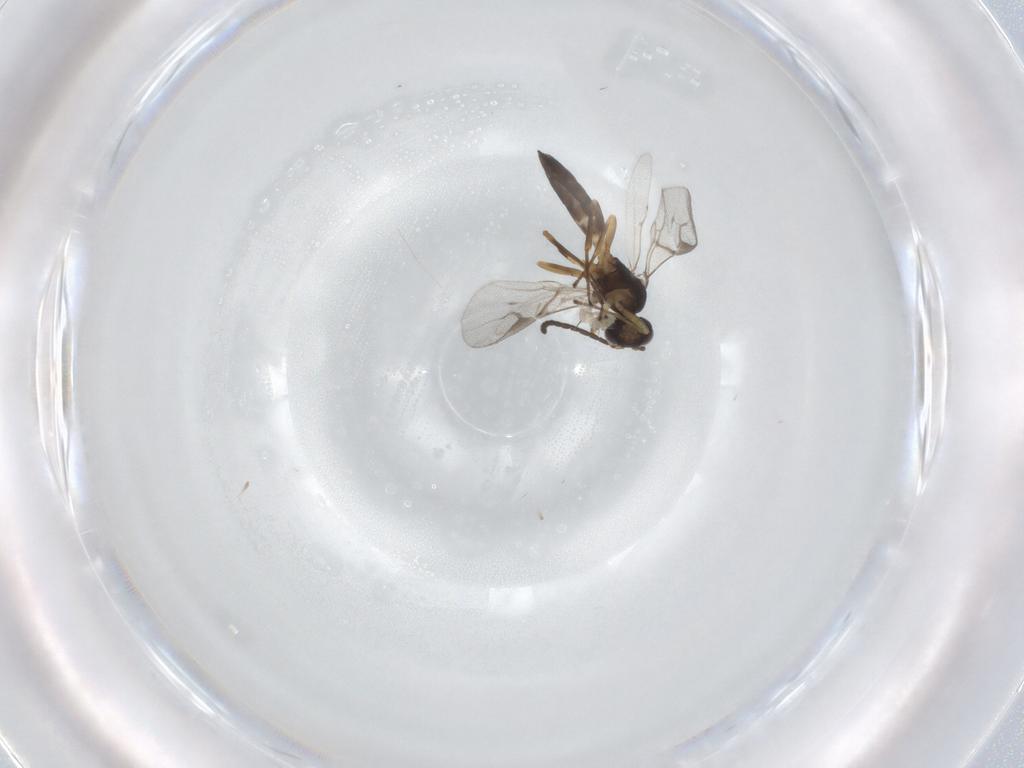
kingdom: Animalia
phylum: Arthropoda
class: Insecta
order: Hymenoptera
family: Braconidae
